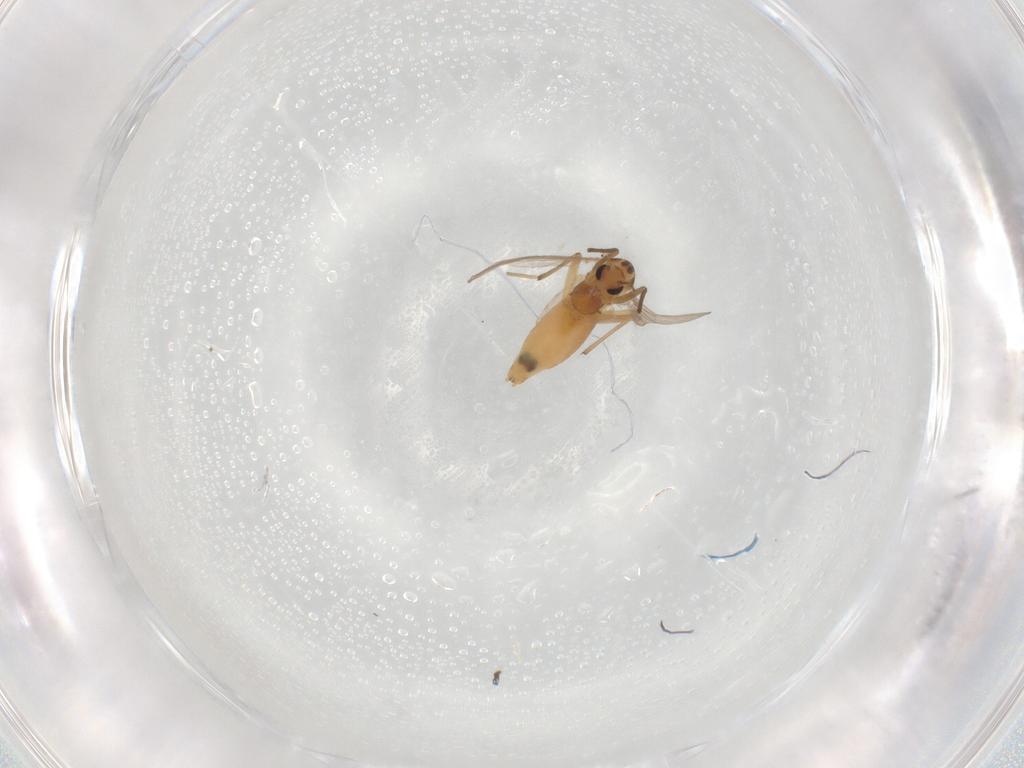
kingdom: Animalia
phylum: Arthropoda
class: Insecta
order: Diptera
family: Chironomidae
